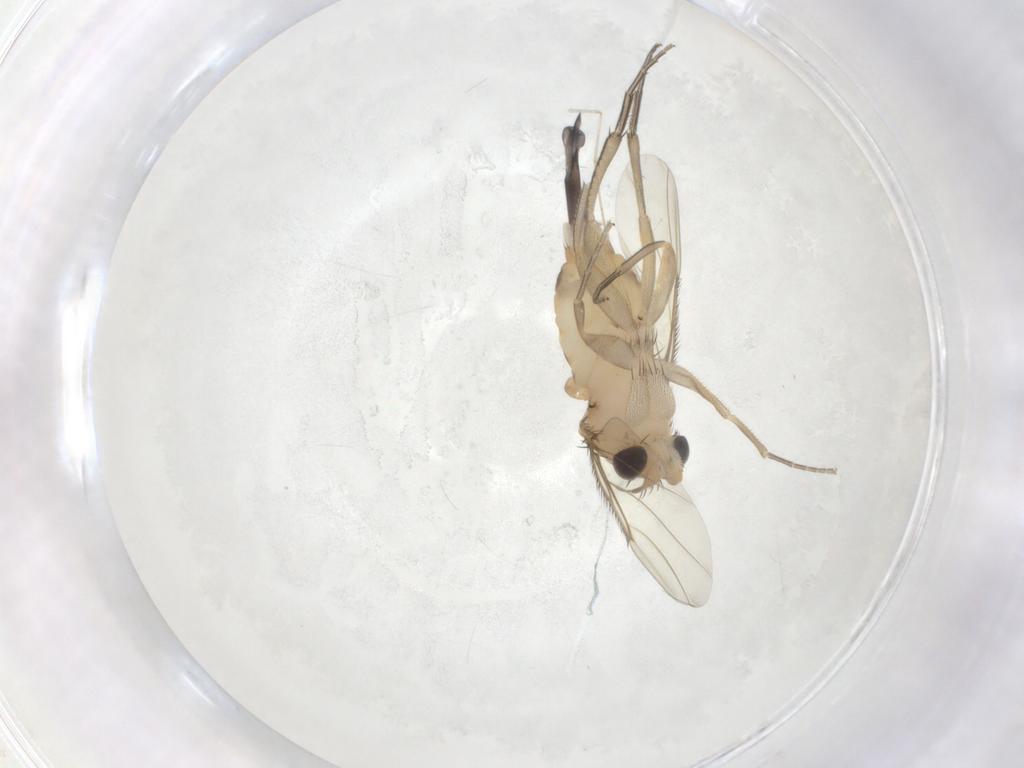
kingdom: Animalia
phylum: Arthropoda
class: Insecta
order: Diptera
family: Phoridae
